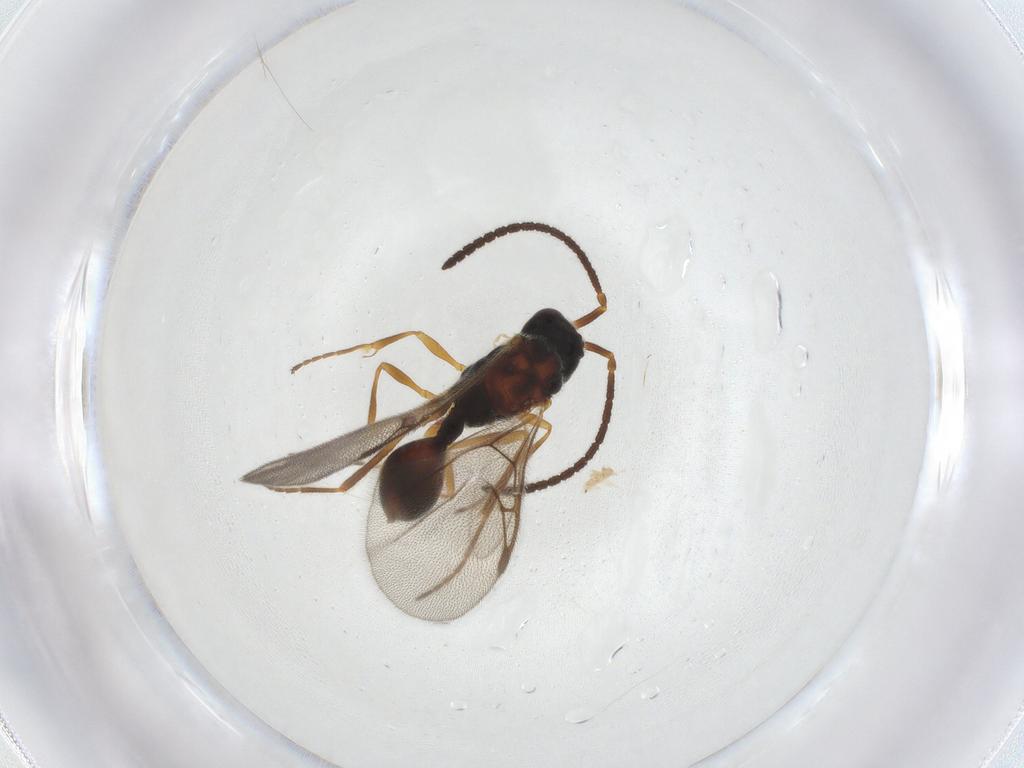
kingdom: Animalia
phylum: Arthropoda
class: Insecta
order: Hymenoptera
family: Diapriidae
